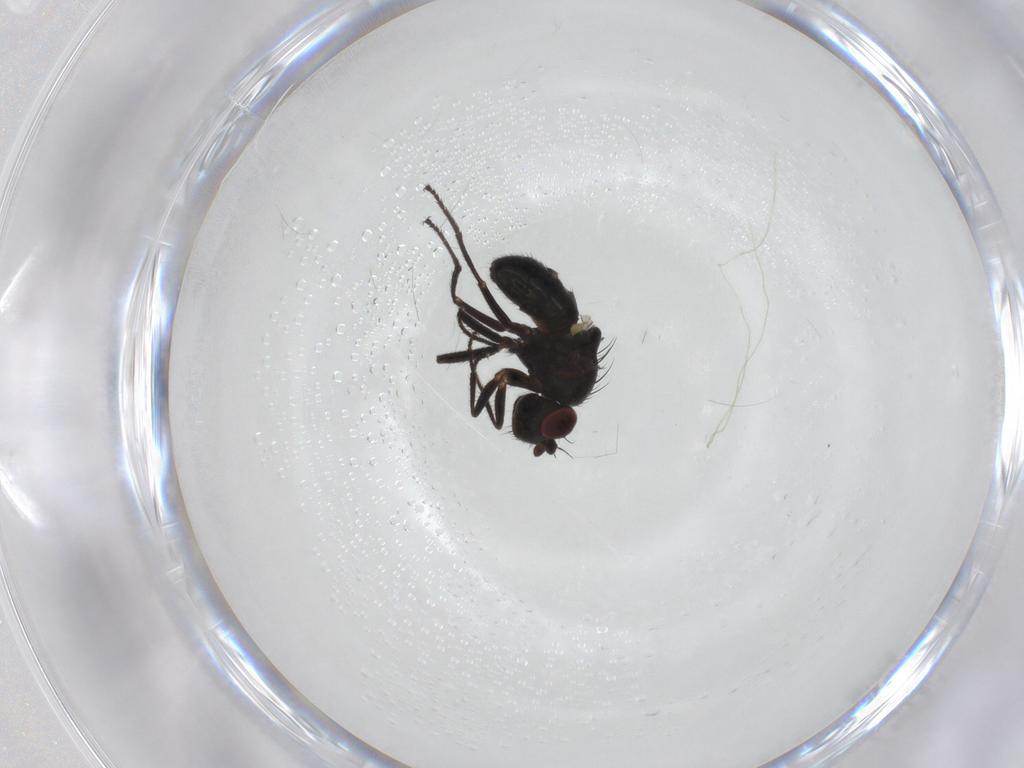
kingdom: Animalia
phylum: Arthropoda
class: Insecta
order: Diptera
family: Ephydridae
